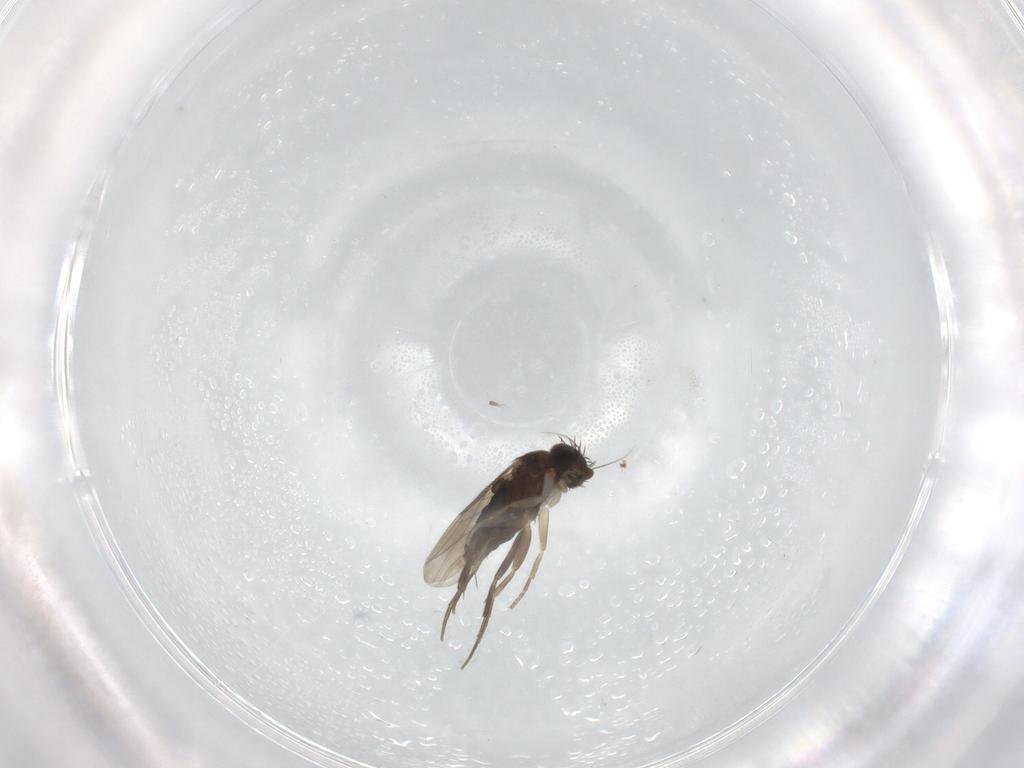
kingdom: Animalia
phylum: Arthropoda
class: Insecta
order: Diptera
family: Phoridae
